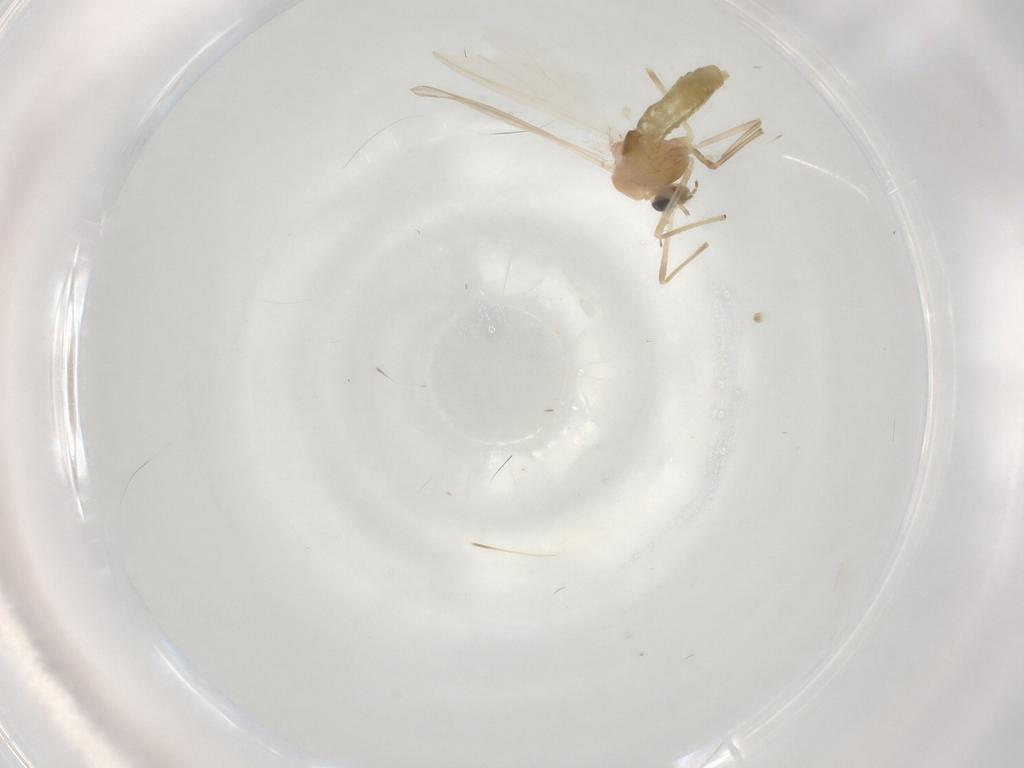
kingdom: Animalia
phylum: Arthropoda
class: Insecta
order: Diptera
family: Chironomidae
